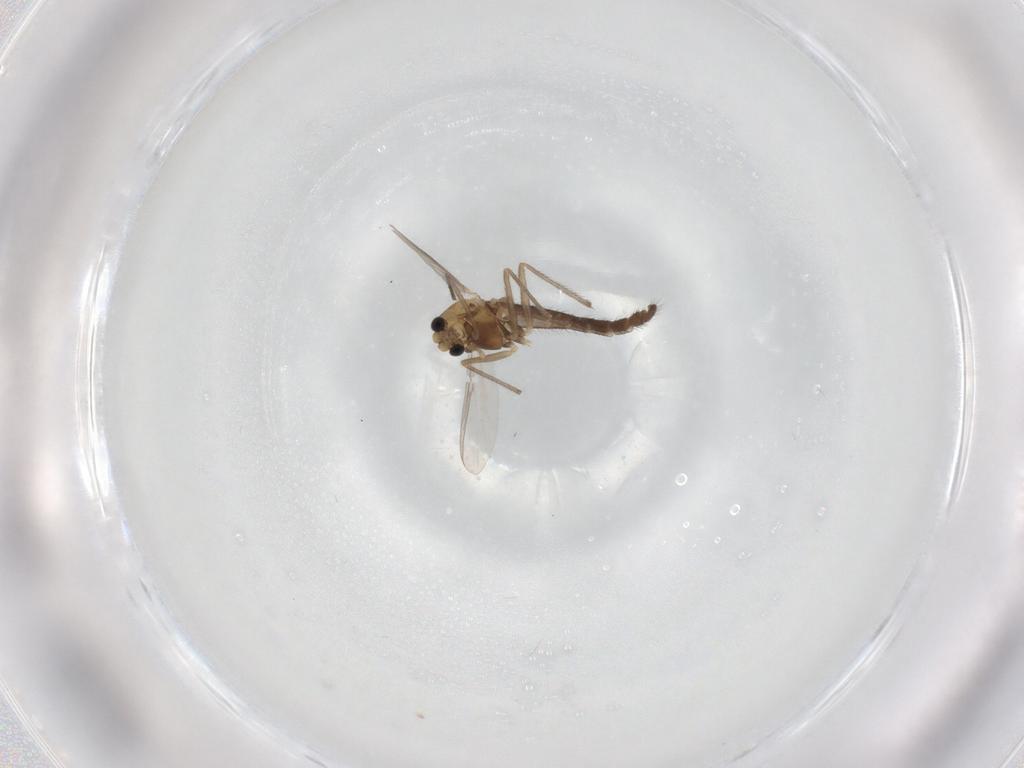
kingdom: Animalia
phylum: Arthropoda
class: Insecta
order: Diptera
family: Chironomidae
